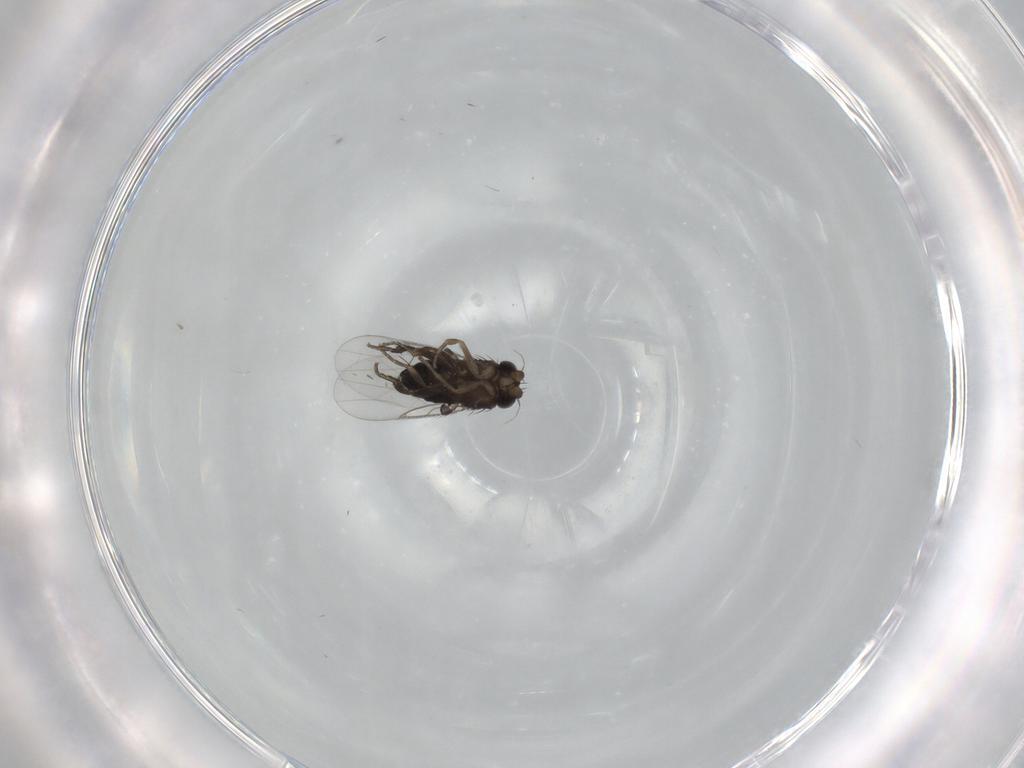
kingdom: Animalia
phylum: Arthropoda
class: Insecta
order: Diptera
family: Phoridae
